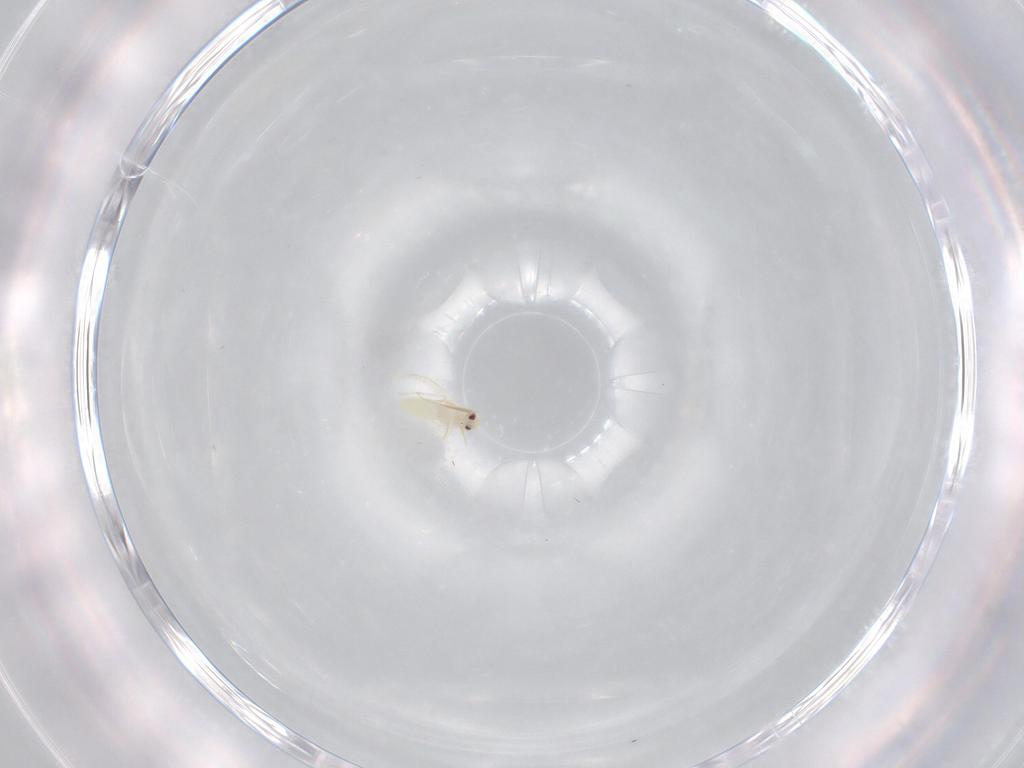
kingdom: Animalia
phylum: Arthropoda
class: Insecta
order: Hemiptera
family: Aleyrodidae
